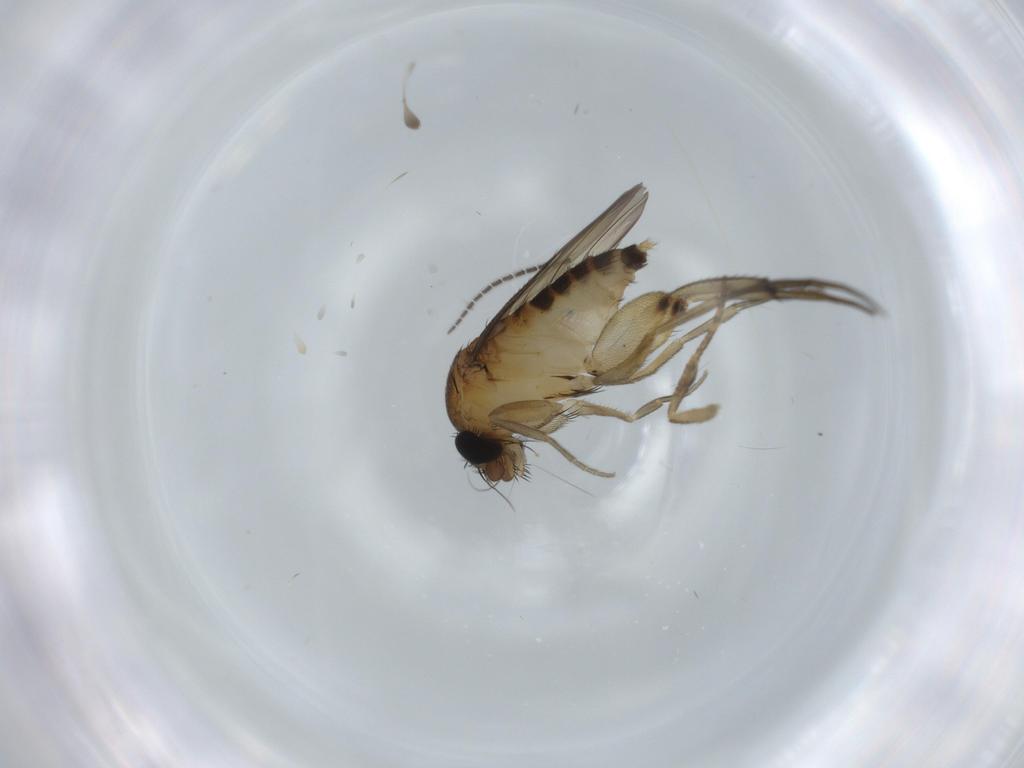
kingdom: Animalia
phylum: Arthropoda
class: Insecta
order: Diptera
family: Phoridae
